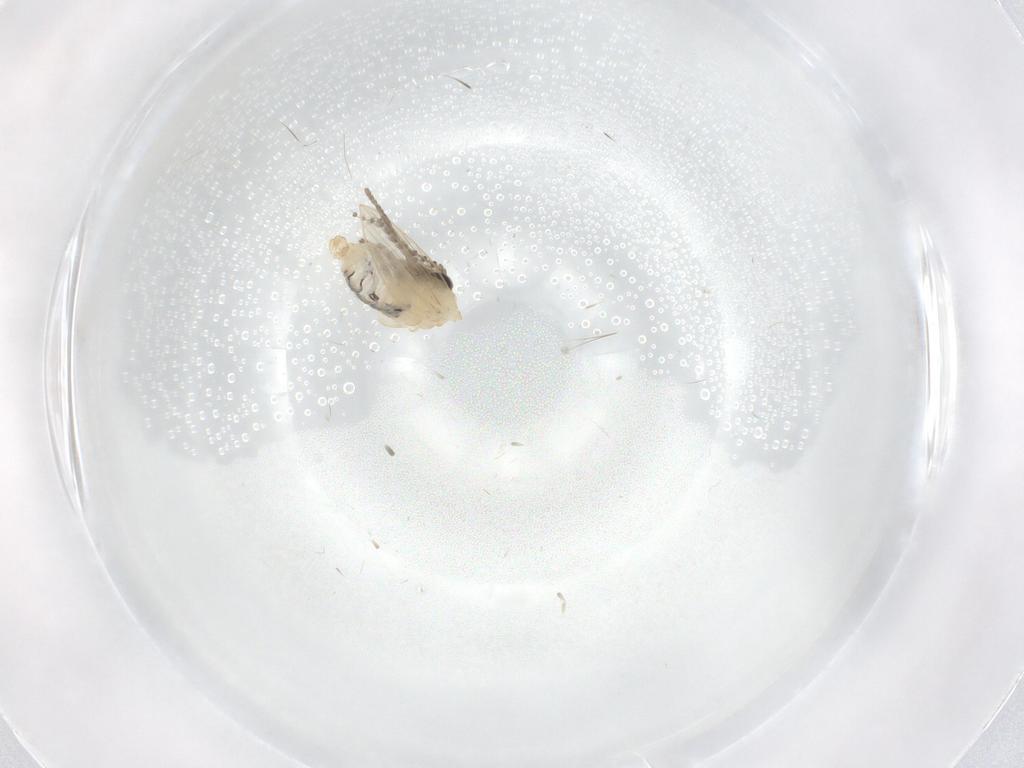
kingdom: Animalia
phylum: Arthropoda
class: Insecta
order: Diptera
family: Psychodidae
